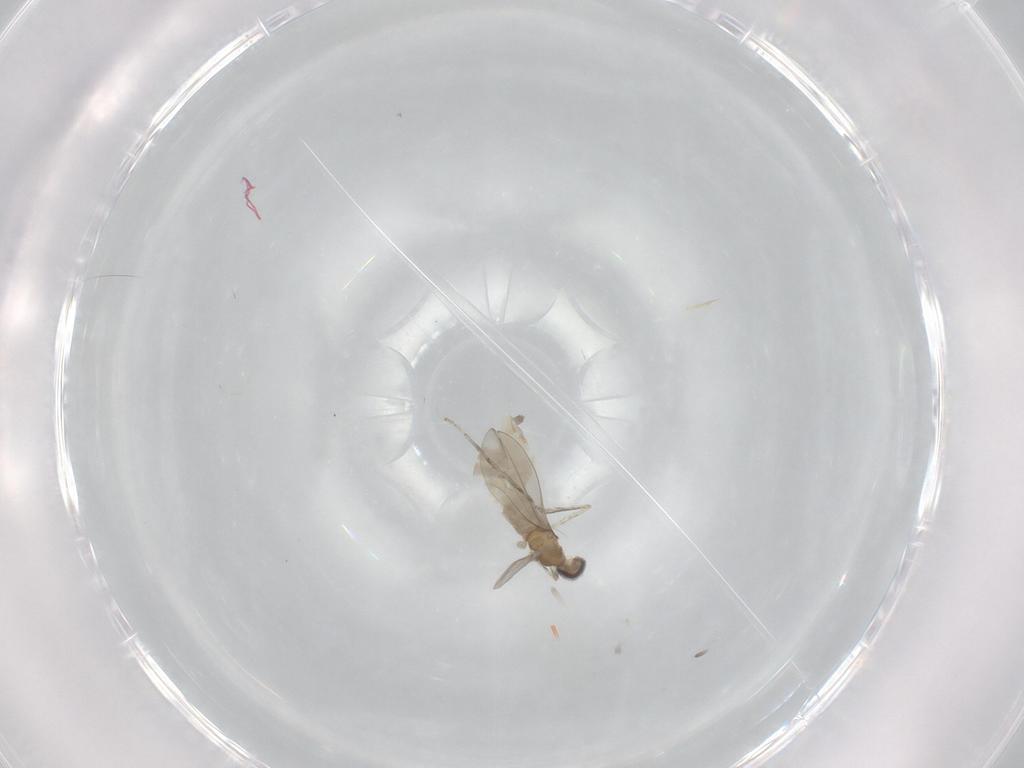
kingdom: Animalia
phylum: Arthropoda
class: Insecta
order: Diptera
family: Cecidomyiidae
